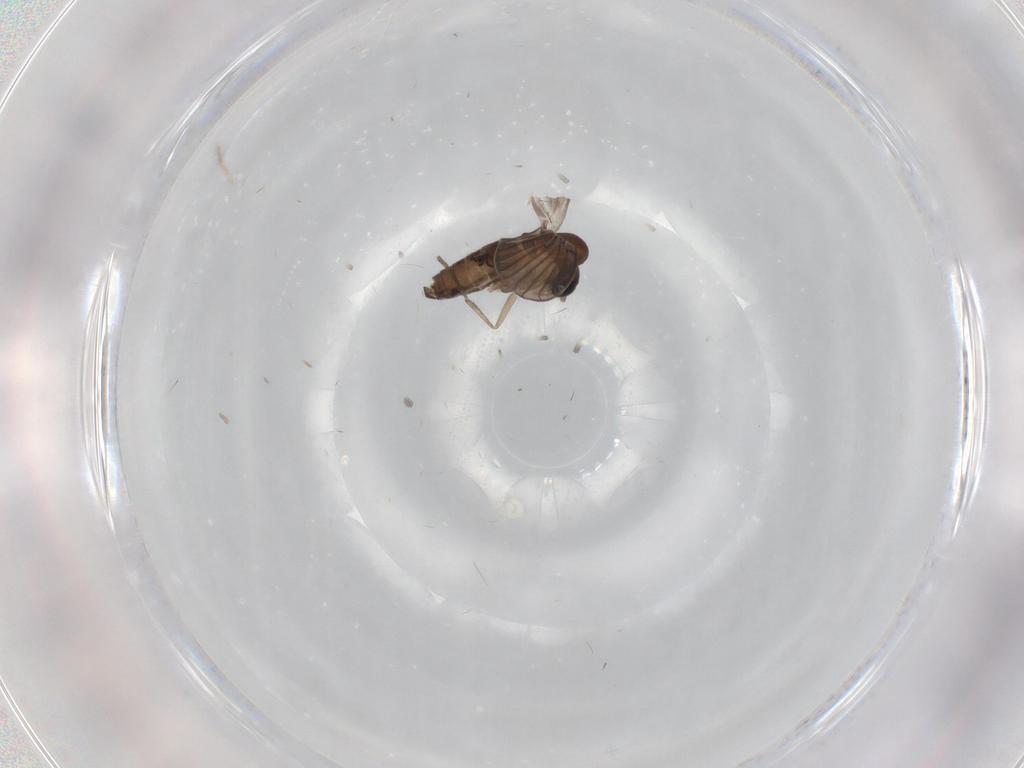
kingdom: Animalia
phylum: Arthropoda
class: Insecta
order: Diptera
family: Psychodidae
